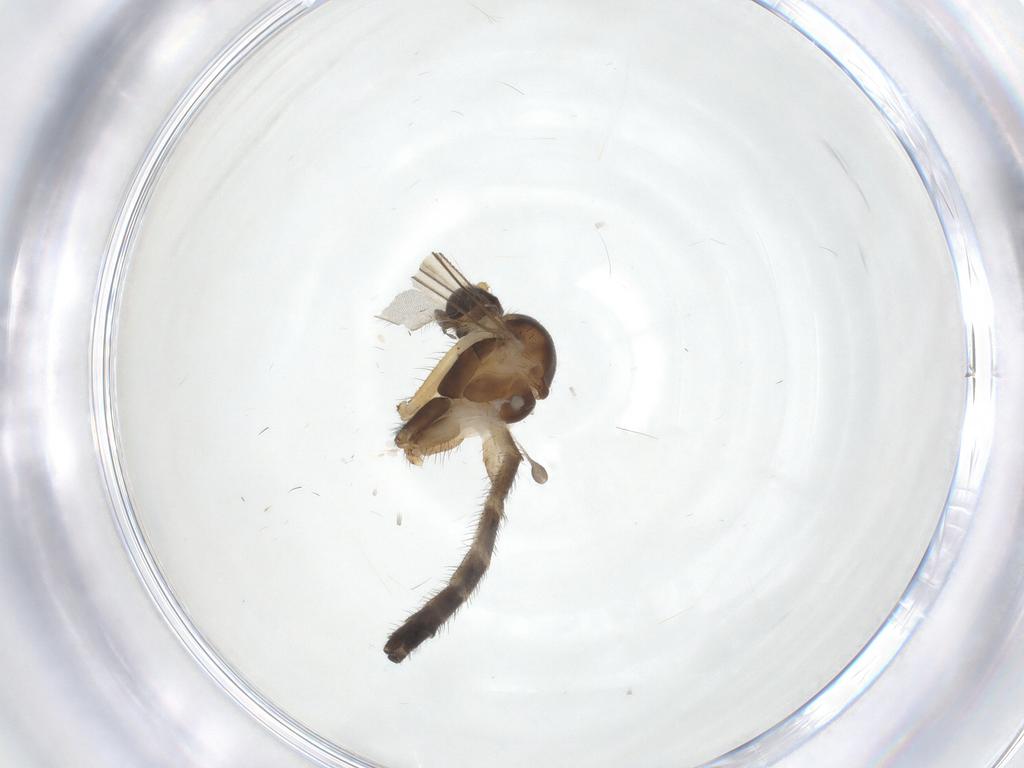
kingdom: Animalia
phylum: Arthropoda
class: Insecta
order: Diptera
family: Keroplatidae
